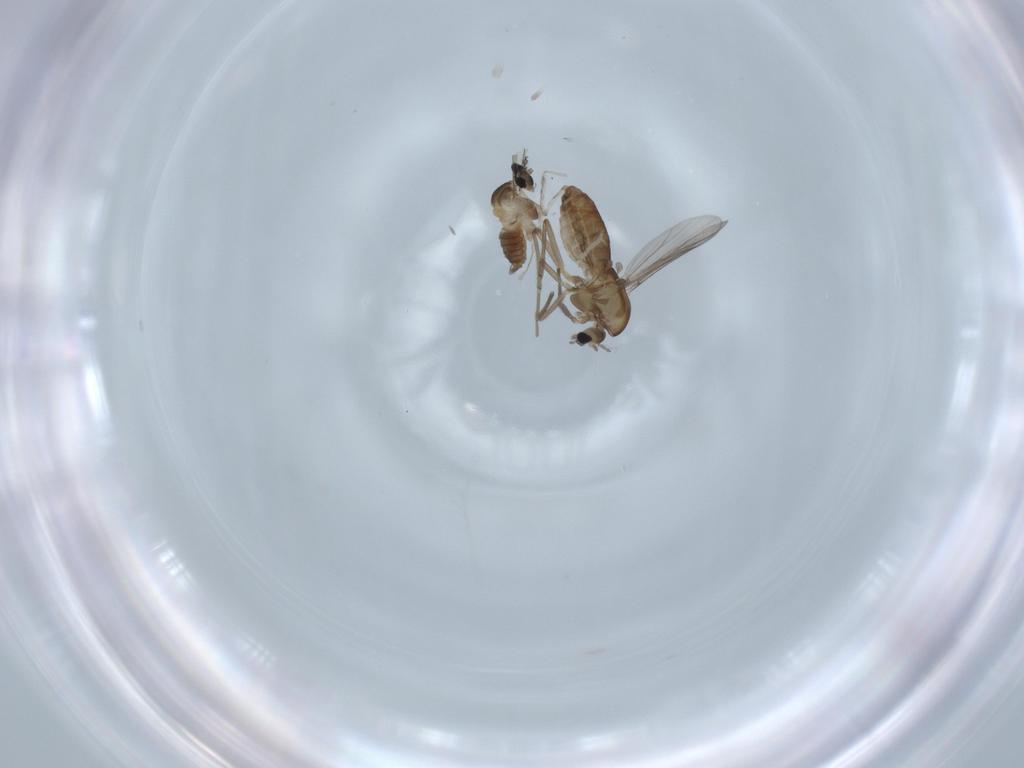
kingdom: Animalia
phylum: Arthropoda
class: Insecta
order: Diptera
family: Chironomidae
